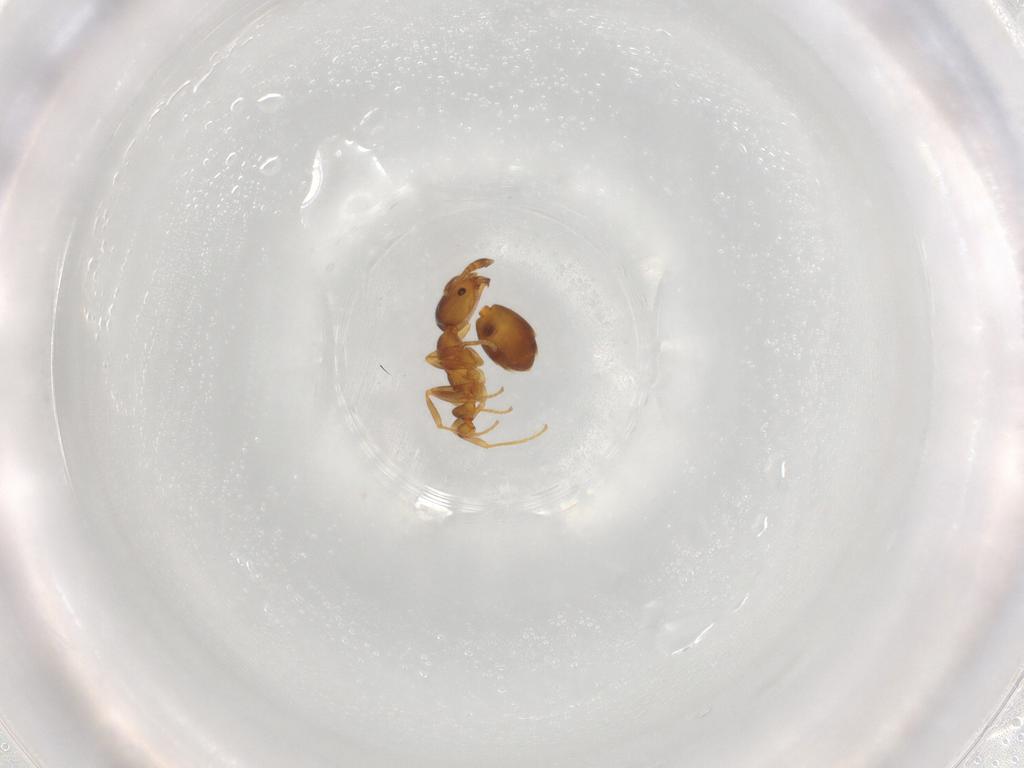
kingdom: Animalia
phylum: Arthropoda
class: Insecta
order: Hymenoptera
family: Formicidae
